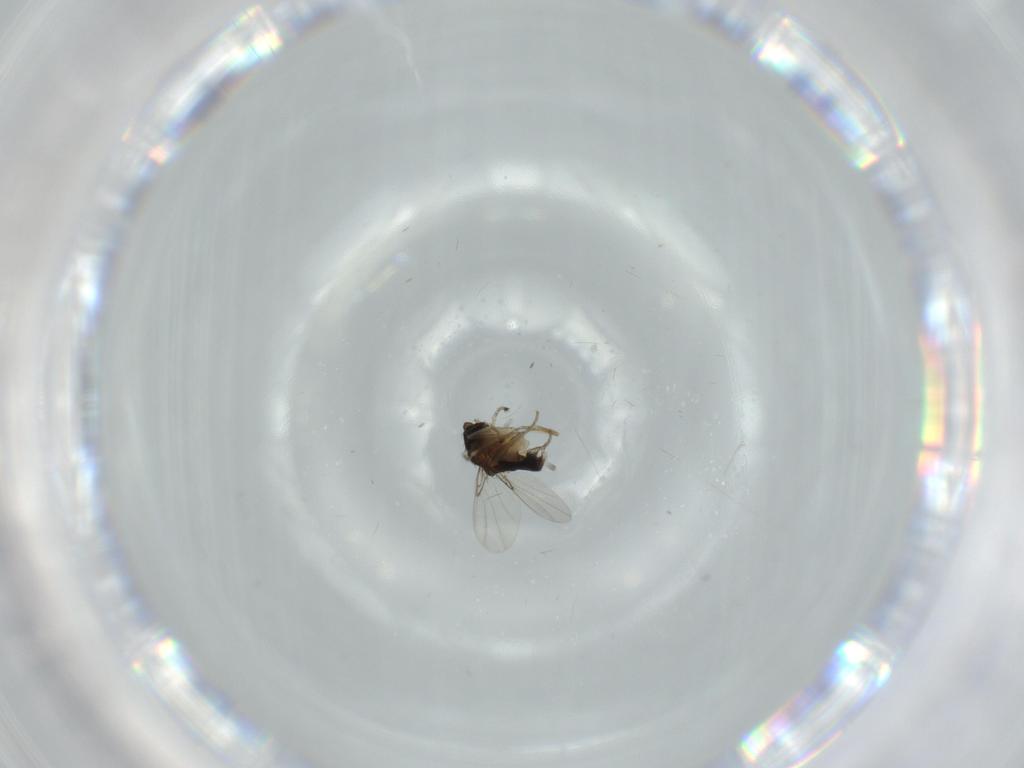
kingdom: Animalia
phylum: Arthropoda
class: Insecta
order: Diptera
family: Phoridae
